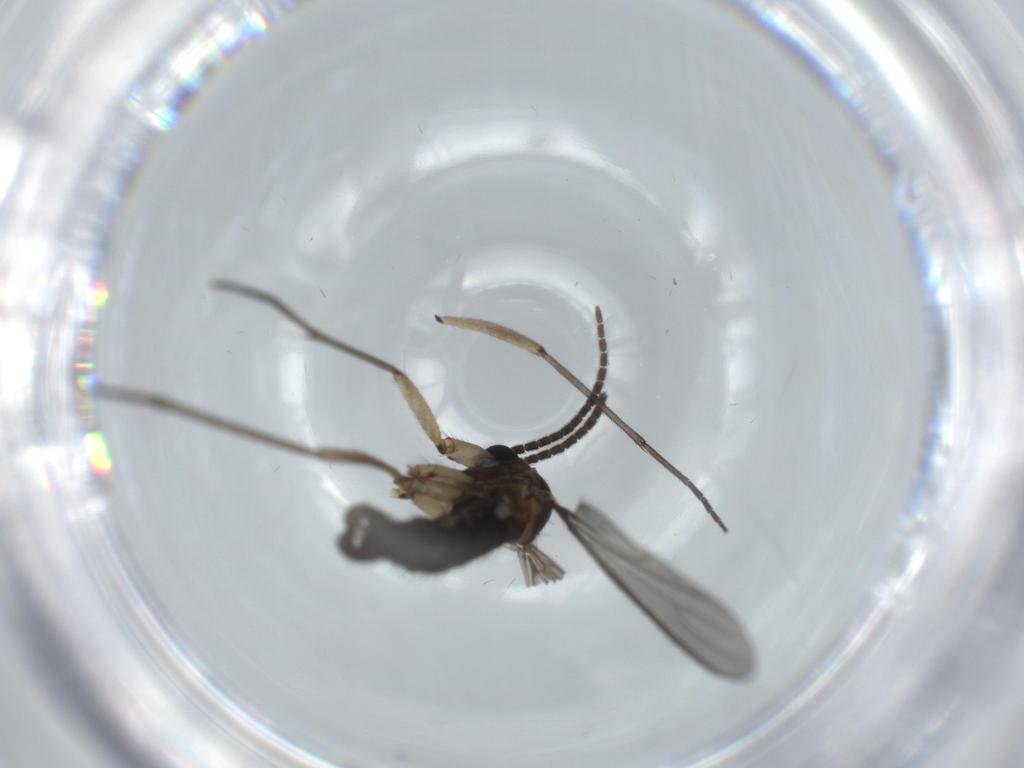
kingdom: Animalia
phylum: Arthropoda
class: Insecta
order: Diptera
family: Sciaridae
